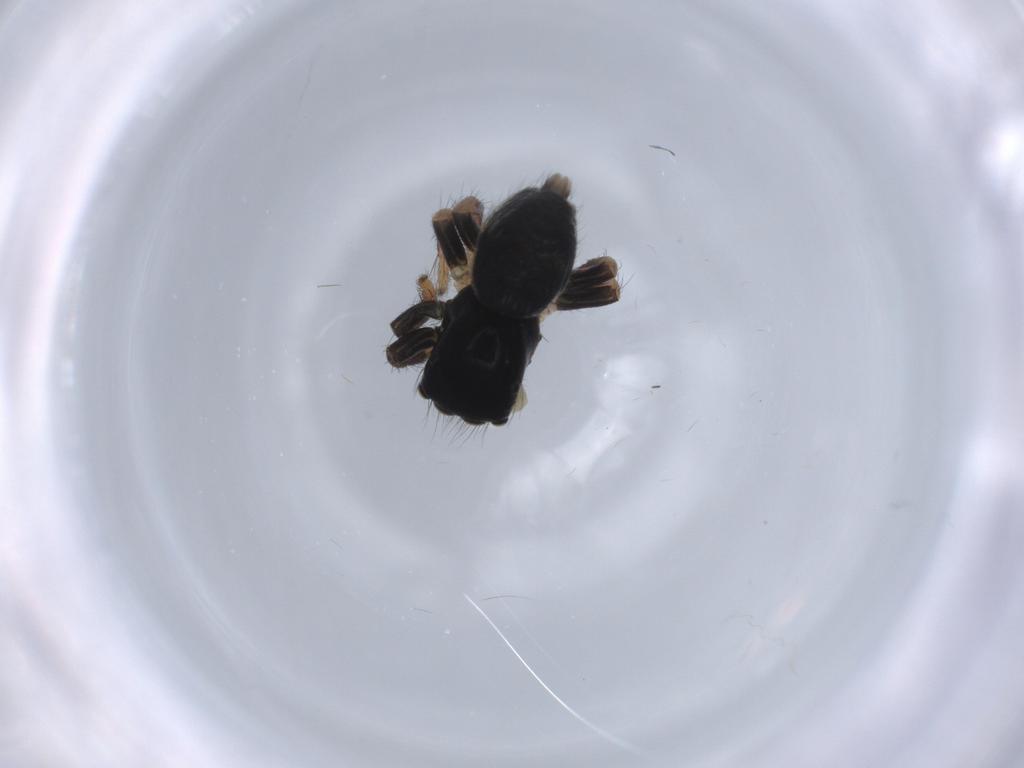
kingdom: Animalia
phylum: Arthropoda
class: Arachnida
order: Araneae
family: Salticidae
